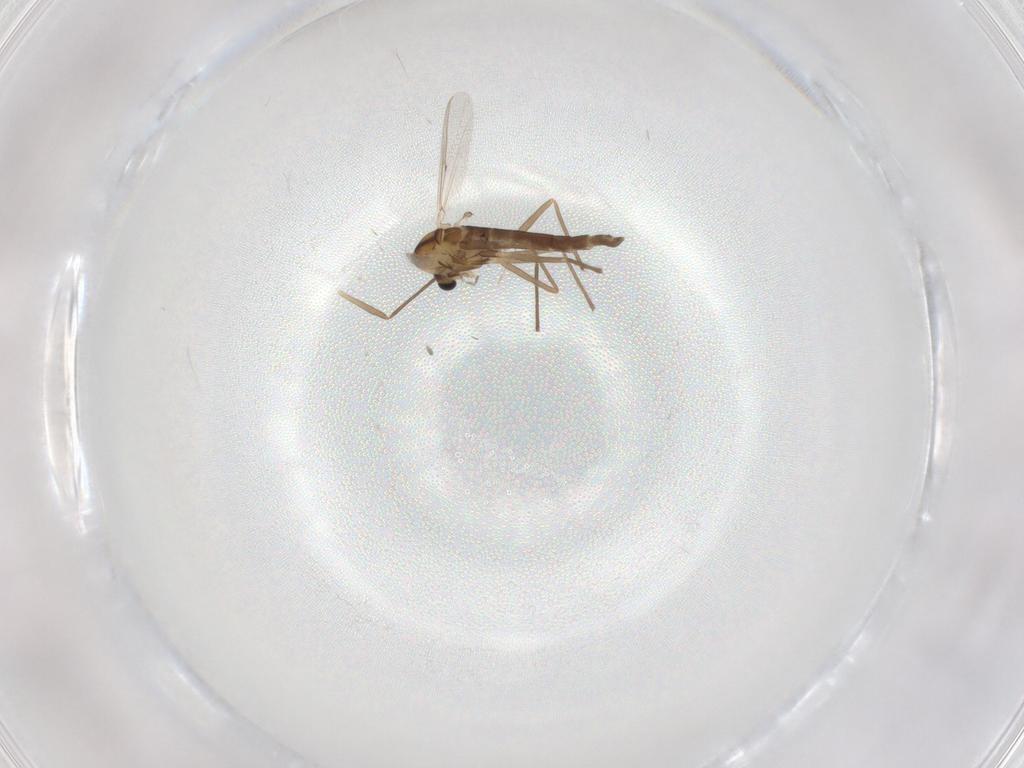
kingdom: Animalia
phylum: Arthropoda
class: Insecta
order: Diptera
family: Chironomidae
